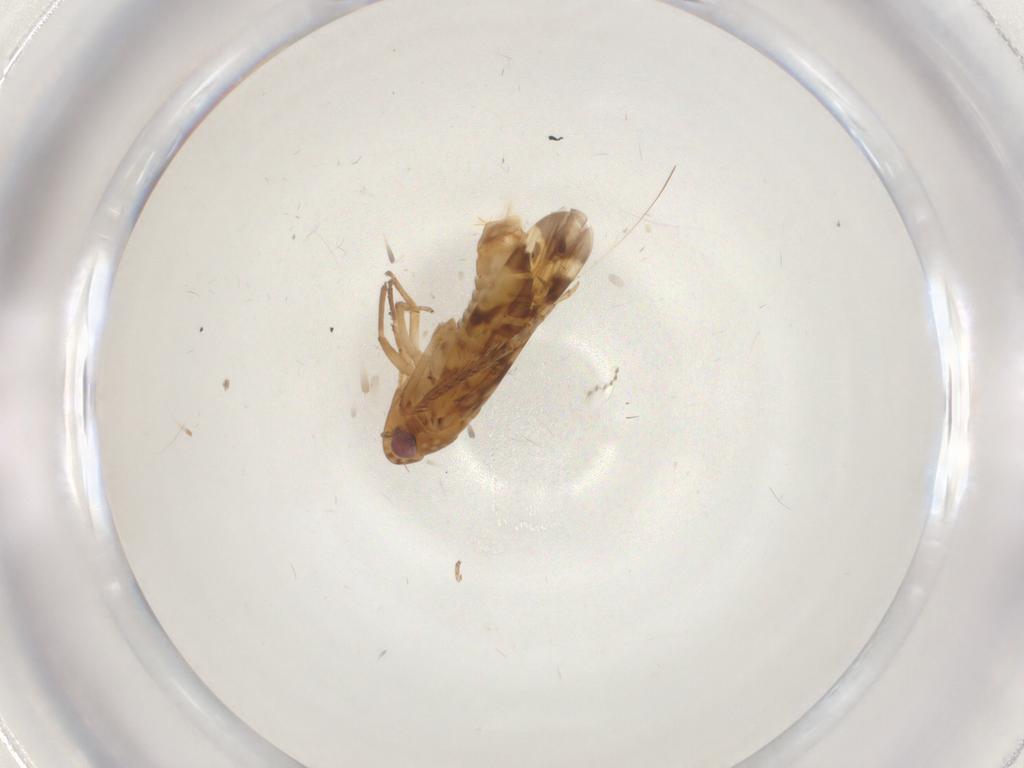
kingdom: Animalia
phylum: Arthropoda
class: Insecta
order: Hemiptera
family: Cicadellidae
